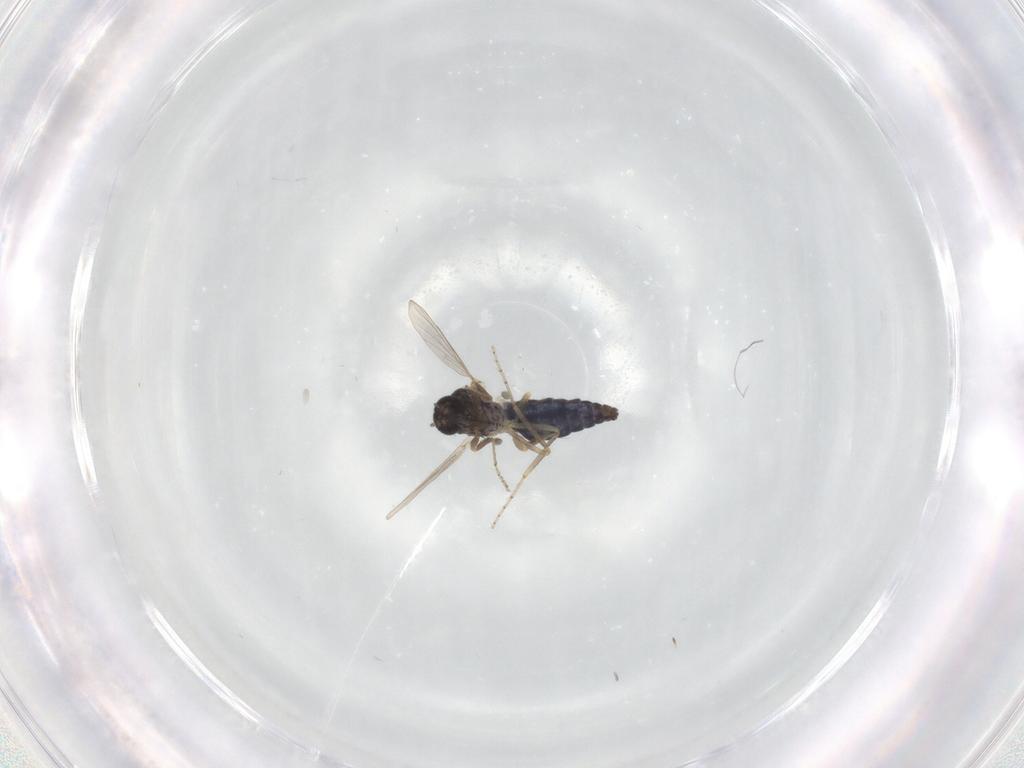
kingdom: Animalia
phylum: Arthropoda
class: Insecta
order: Diptera
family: Ceratopogonidae
